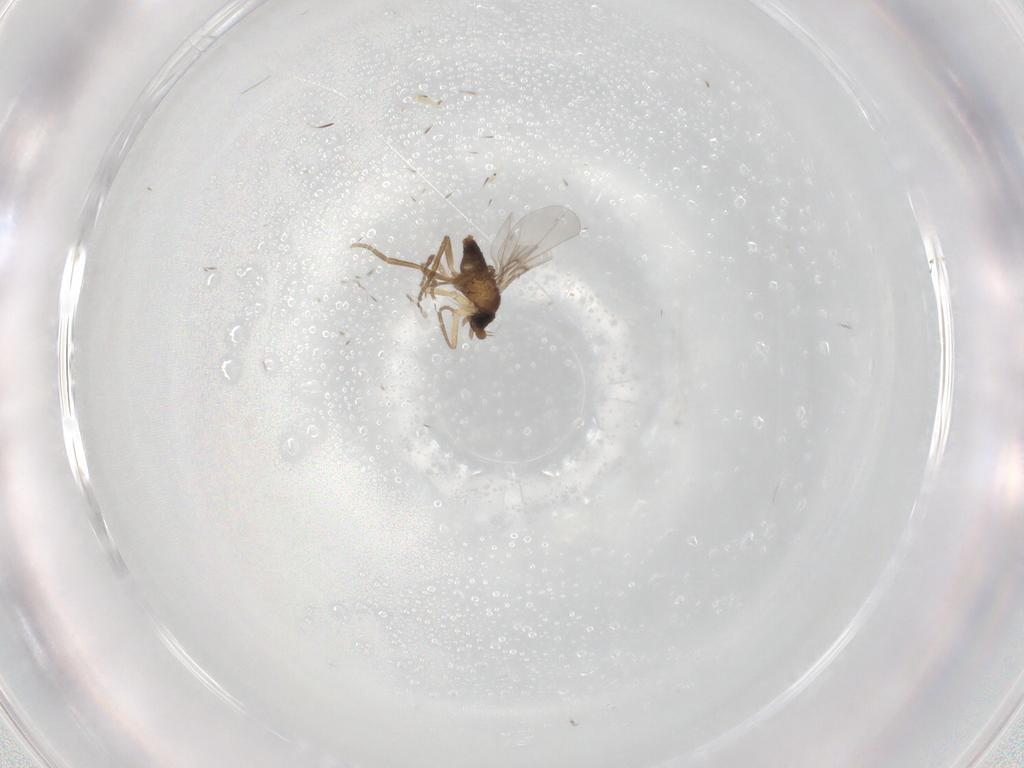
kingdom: Animalia
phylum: Arthropoda
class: Insecta
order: Diptera
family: Phoridae
